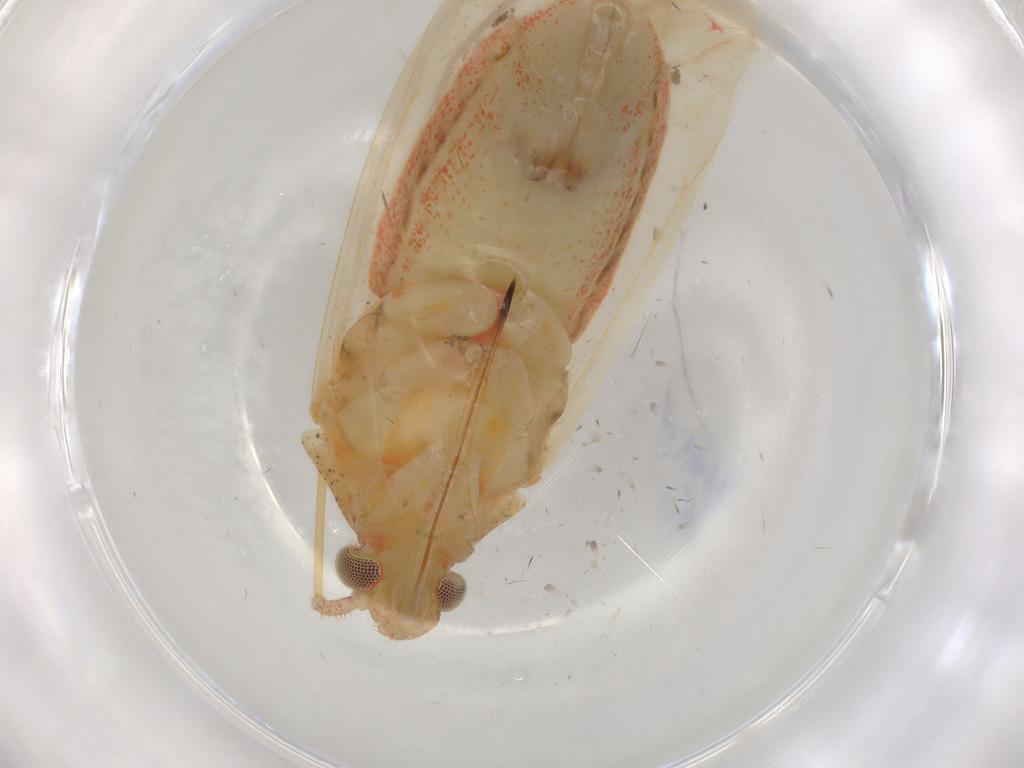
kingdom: Animalia
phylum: Arthropoda
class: Insecta
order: Hemiptera
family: Miridae
